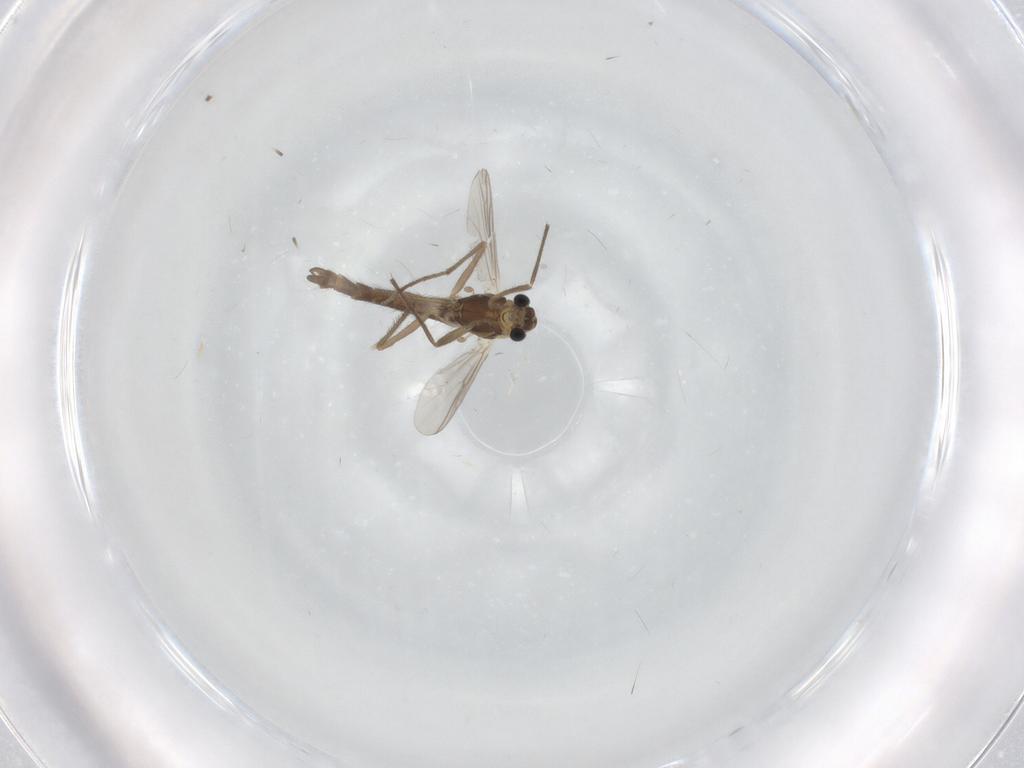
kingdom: Animalia
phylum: Arthropoda
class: Insecta
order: Diptera
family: Chironomidae
